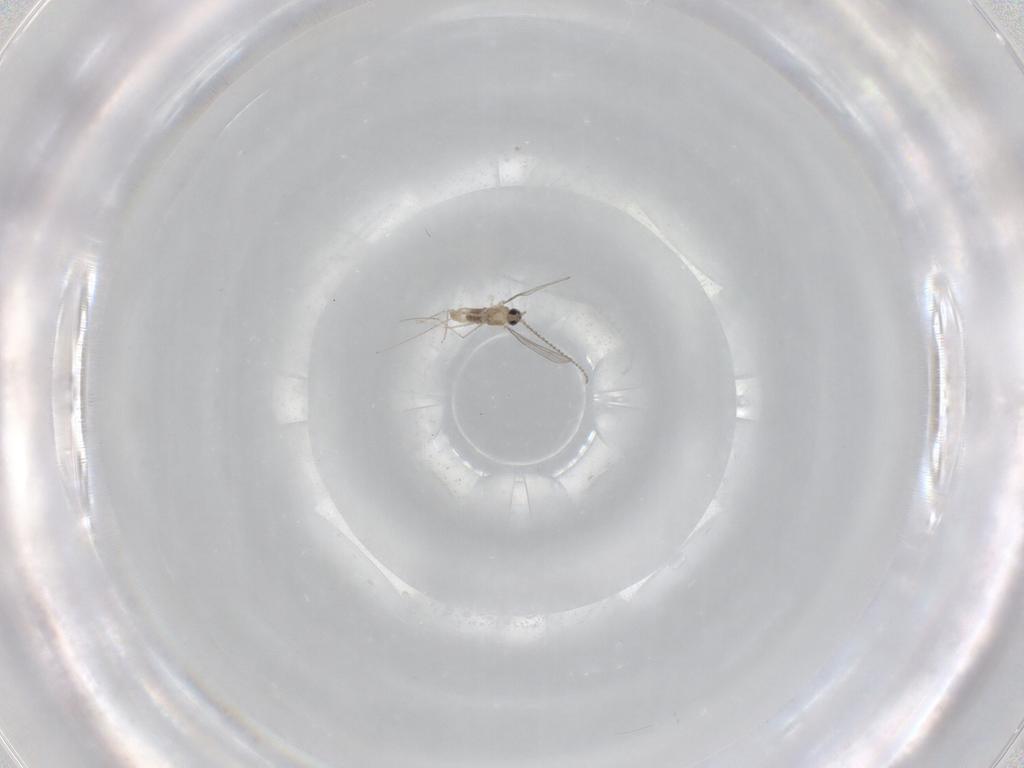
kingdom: Animalia
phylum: Arthropoda
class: Insecta
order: Diptera
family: Cecidomyiidae
